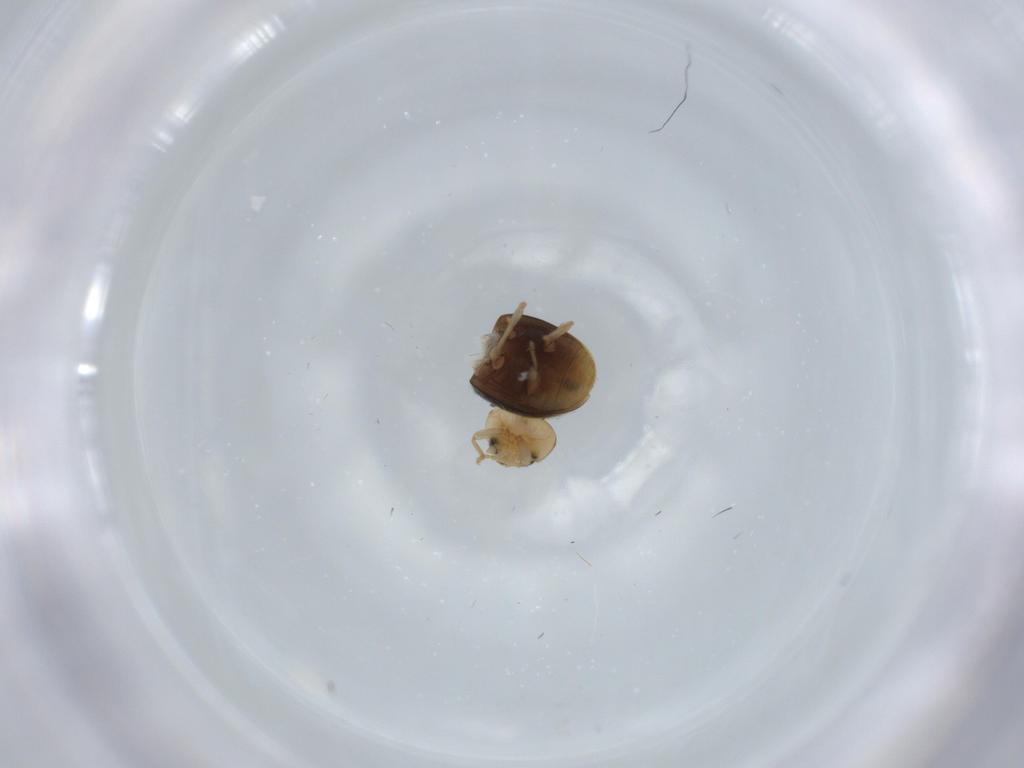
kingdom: Animalia
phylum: Arthropoda
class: Insecta
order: Coleoptera
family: Coccinellidae
